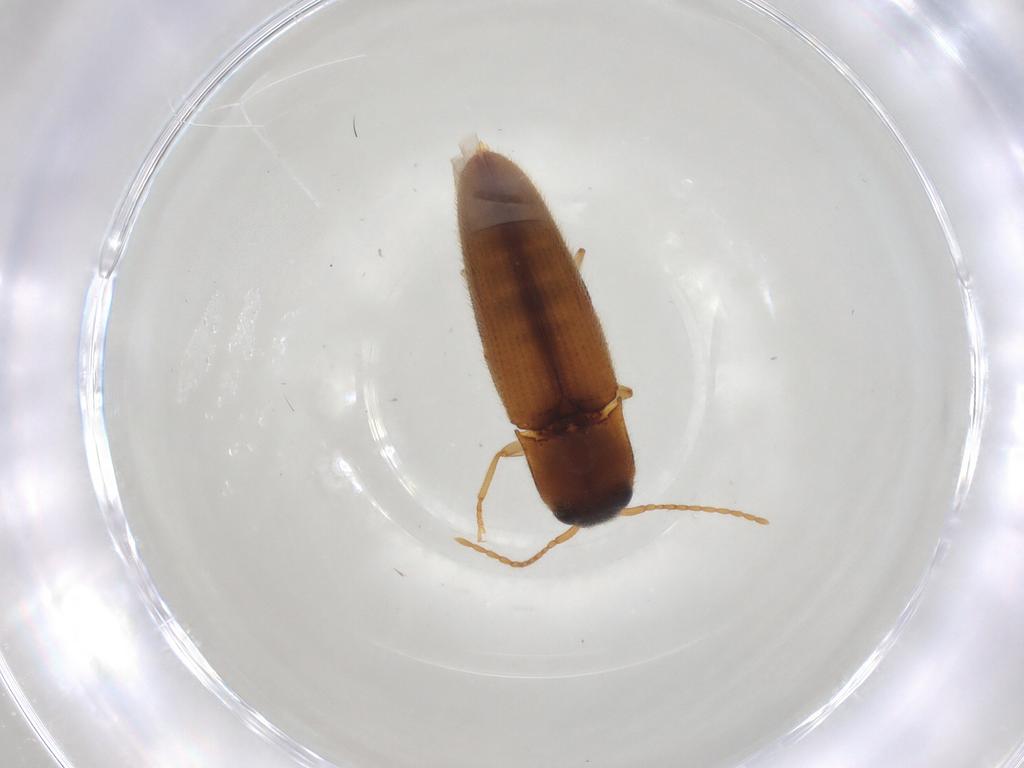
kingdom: Animalia
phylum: Arthropoda
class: Insecta
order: Coleoptera
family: Elateridae
